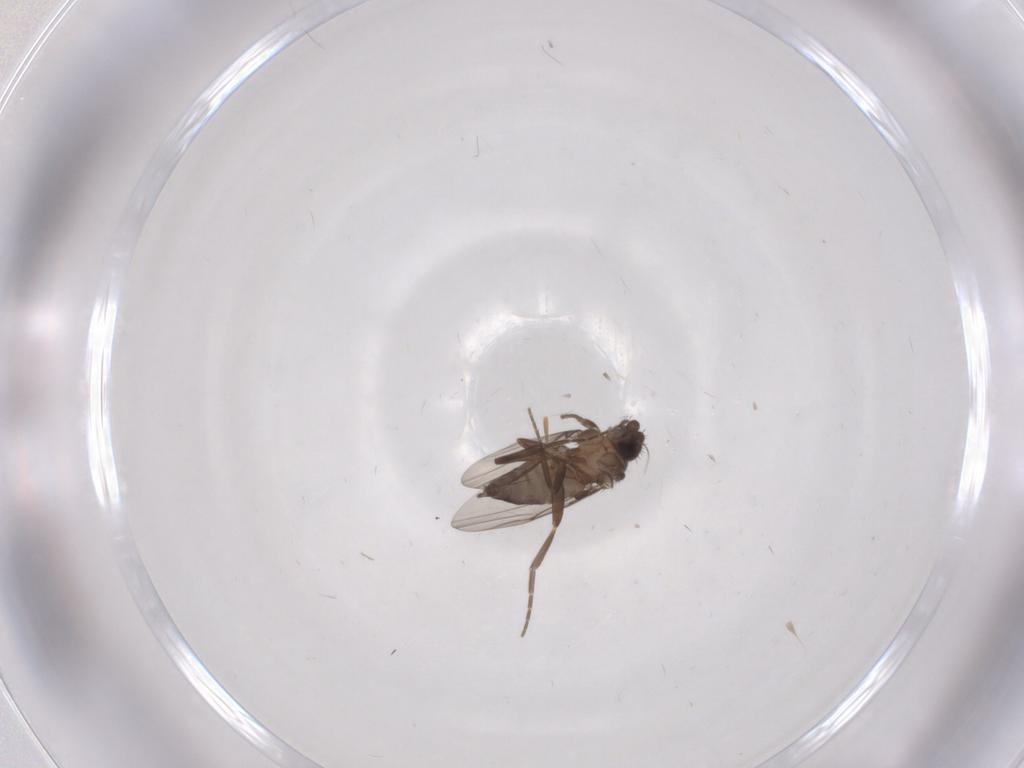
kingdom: Animalia
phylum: Arthropoda
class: Insecta
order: Diptera
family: Phoridae
